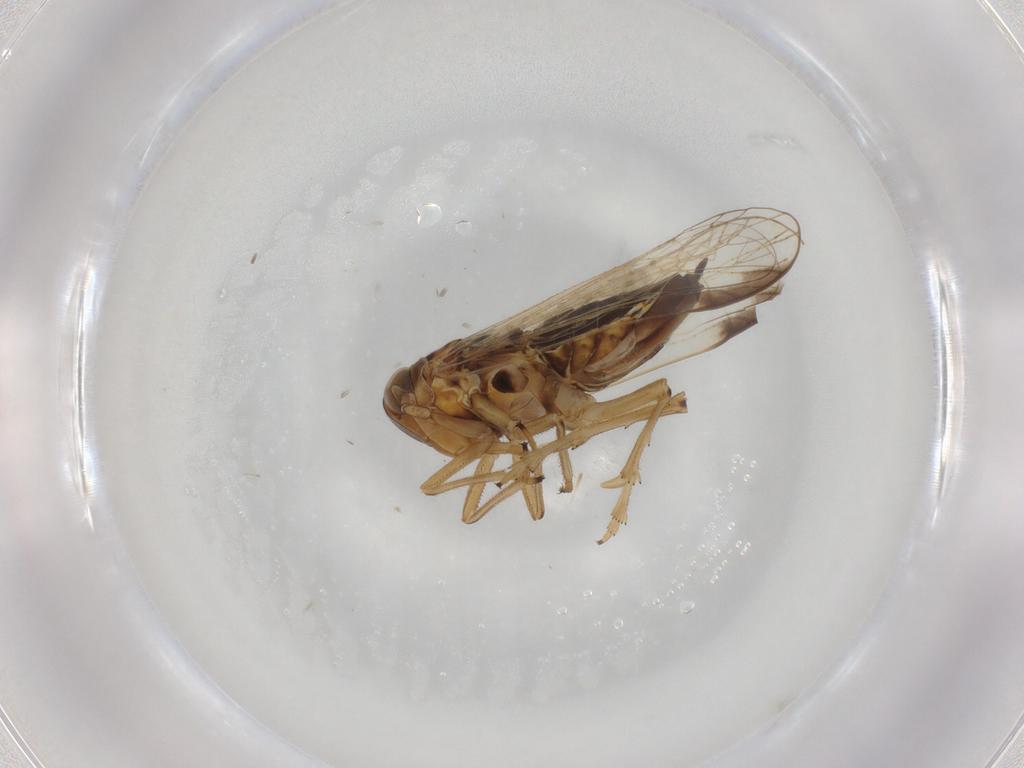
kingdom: Animalia
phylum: Arthropoda
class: Insecta
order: Hemiptera
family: Delphacidae
